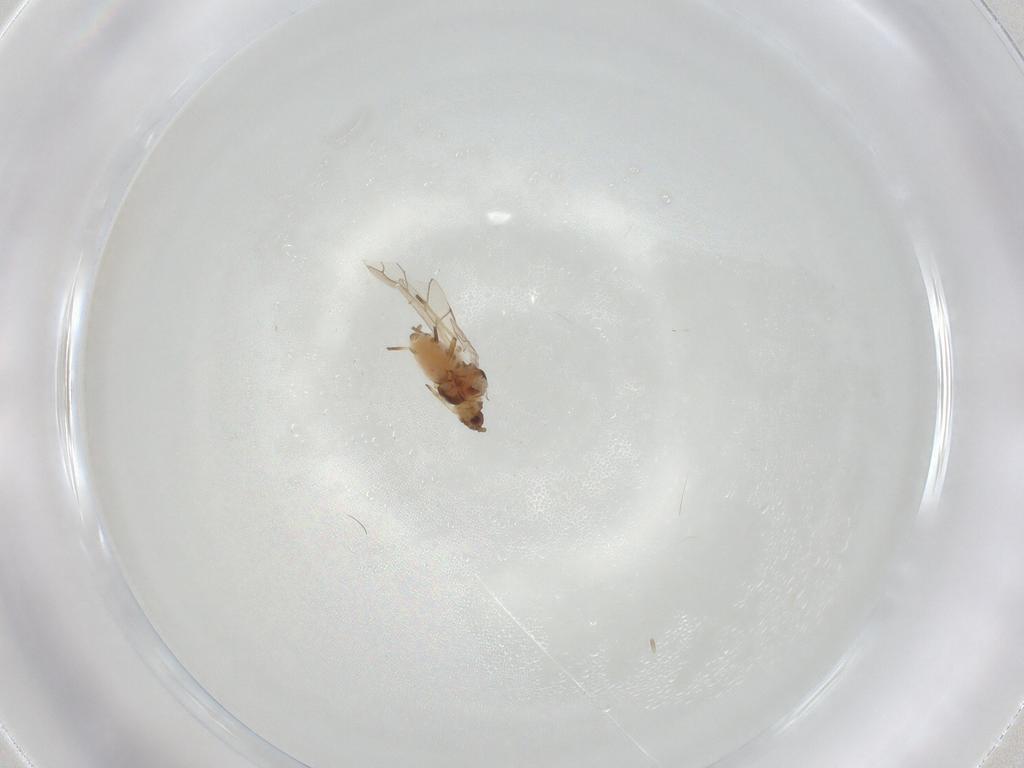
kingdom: Animalia
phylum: Arthropoda
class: Insecta
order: Hemiptera
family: Aphididae
